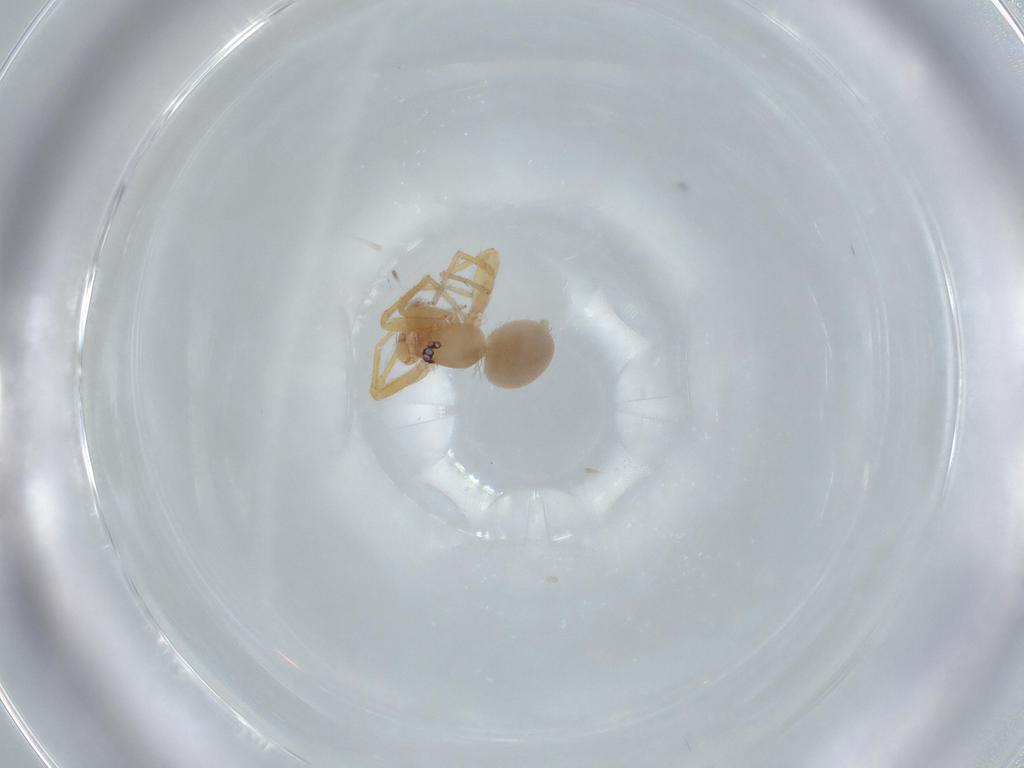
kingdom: Animalia
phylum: Arthropoda
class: Arachnida
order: Araneae
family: Oonopidae
